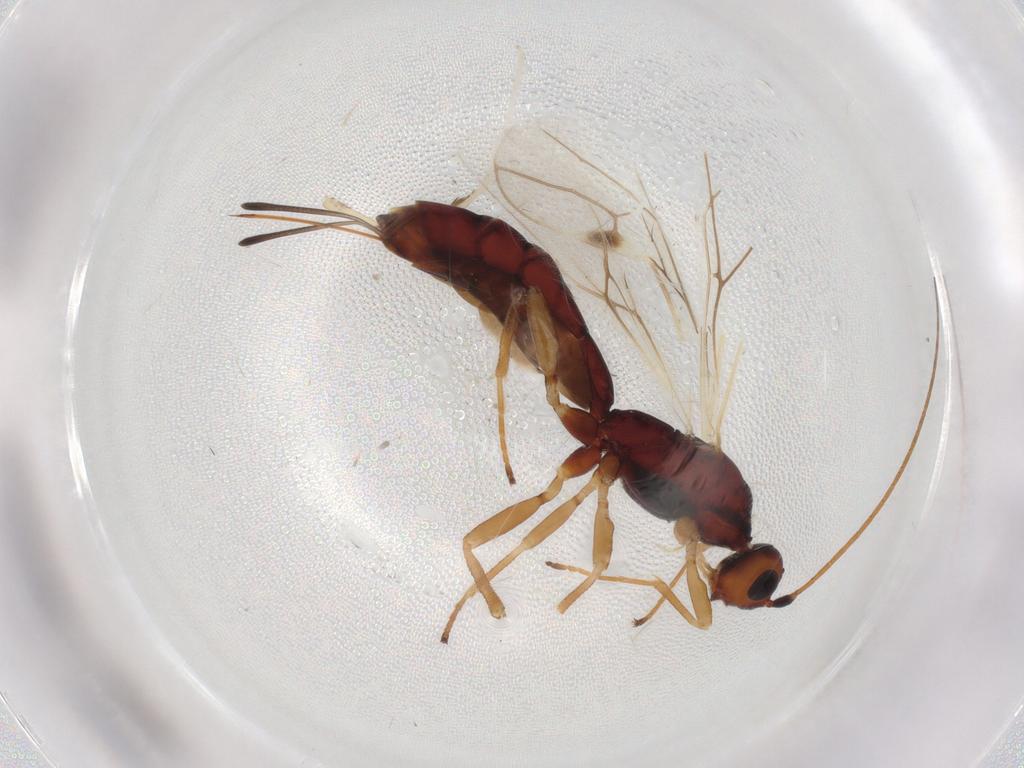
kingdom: Animalia
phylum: Arthropoda
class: Insecta
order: Hymenoptera
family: Braconidae
